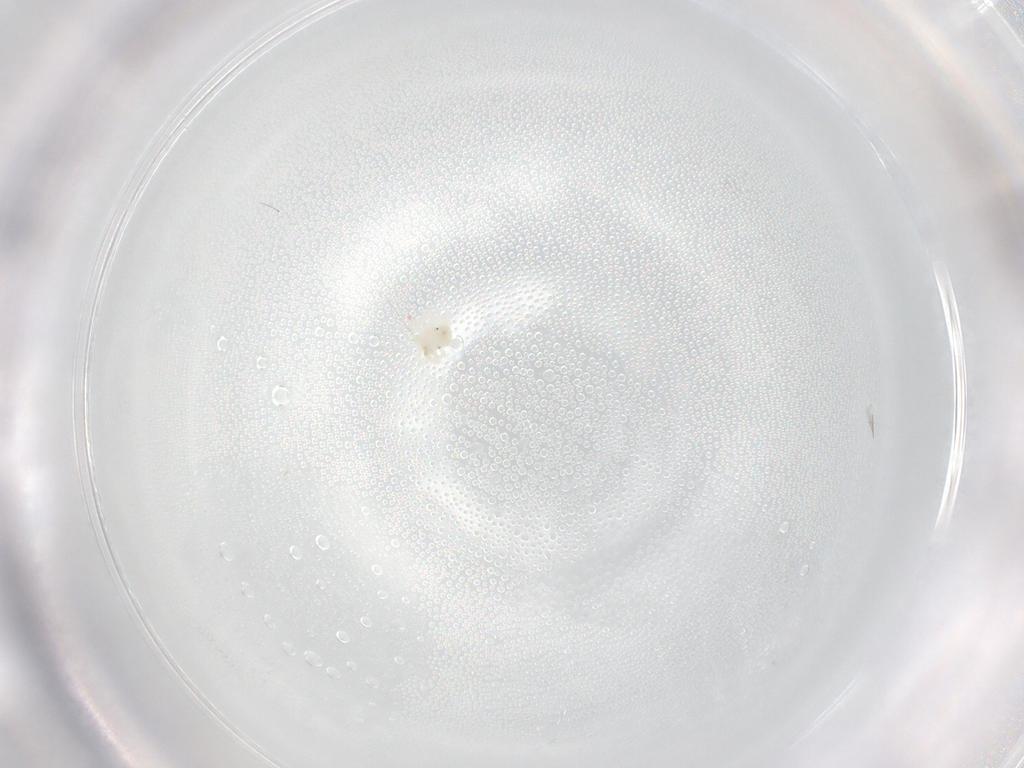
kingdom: Animalia
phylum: Arthropoda
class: Arachnida
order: Trombidiformes
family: Anystidae
